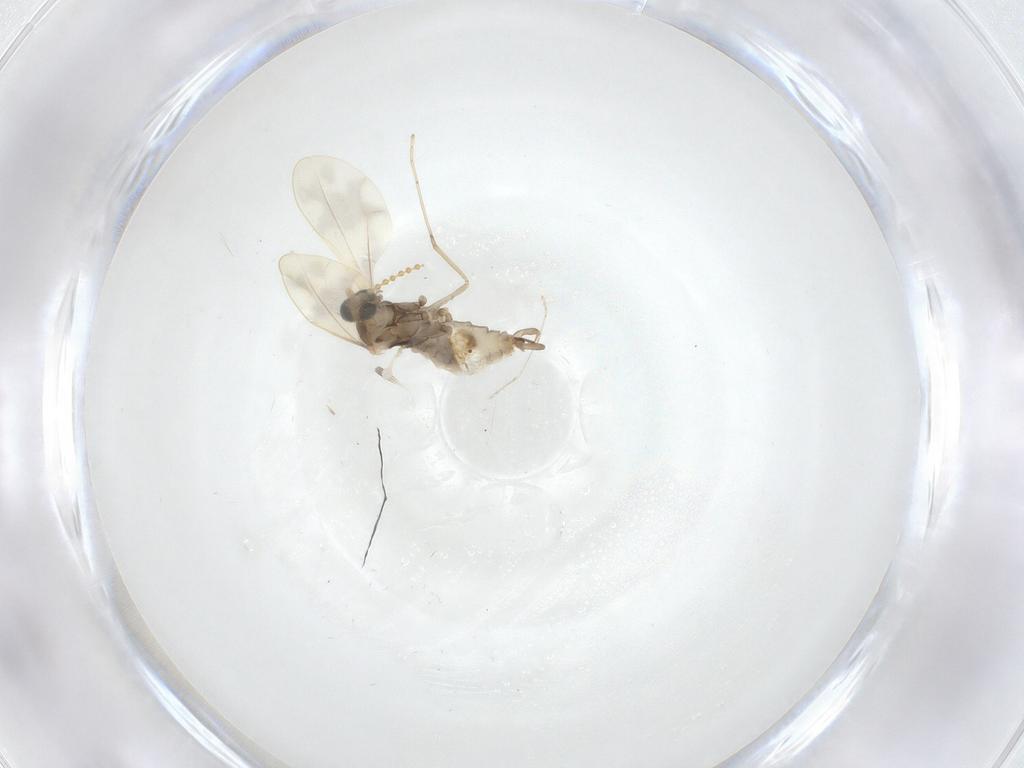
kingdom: Animalia
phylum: Arthropoda
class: Insecta
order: Diptera
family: Cecidomyiidae
